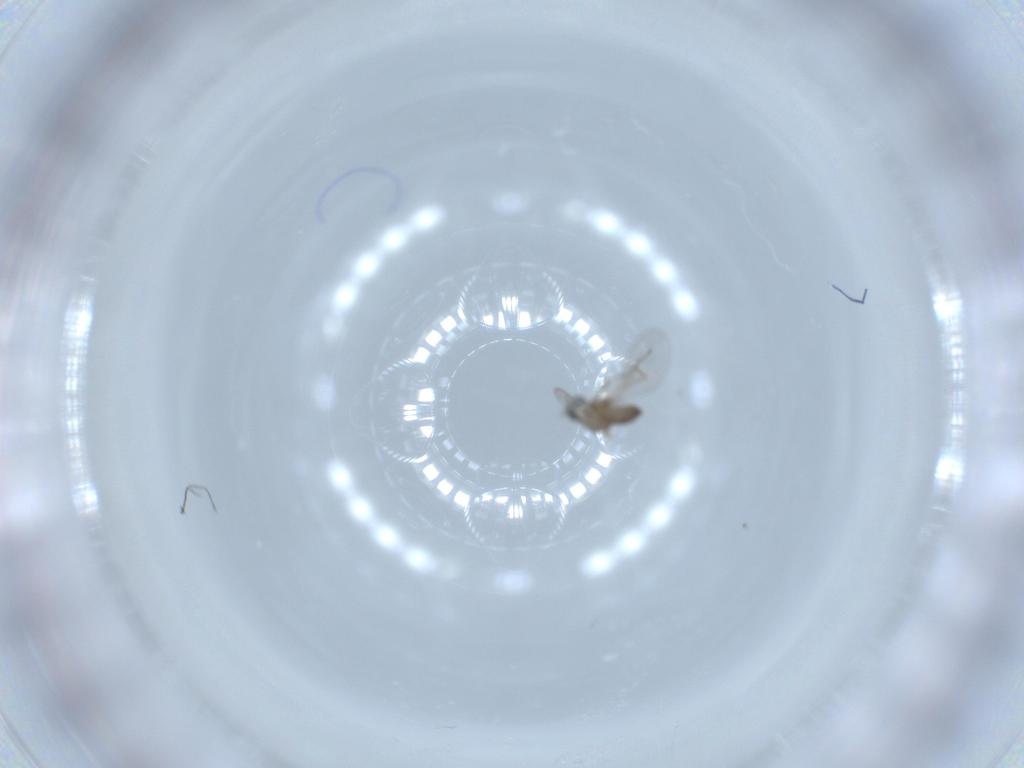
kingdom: Animalia
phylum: Arthropoda
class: Insecta
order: Diptera
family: Cecidomyiidae
